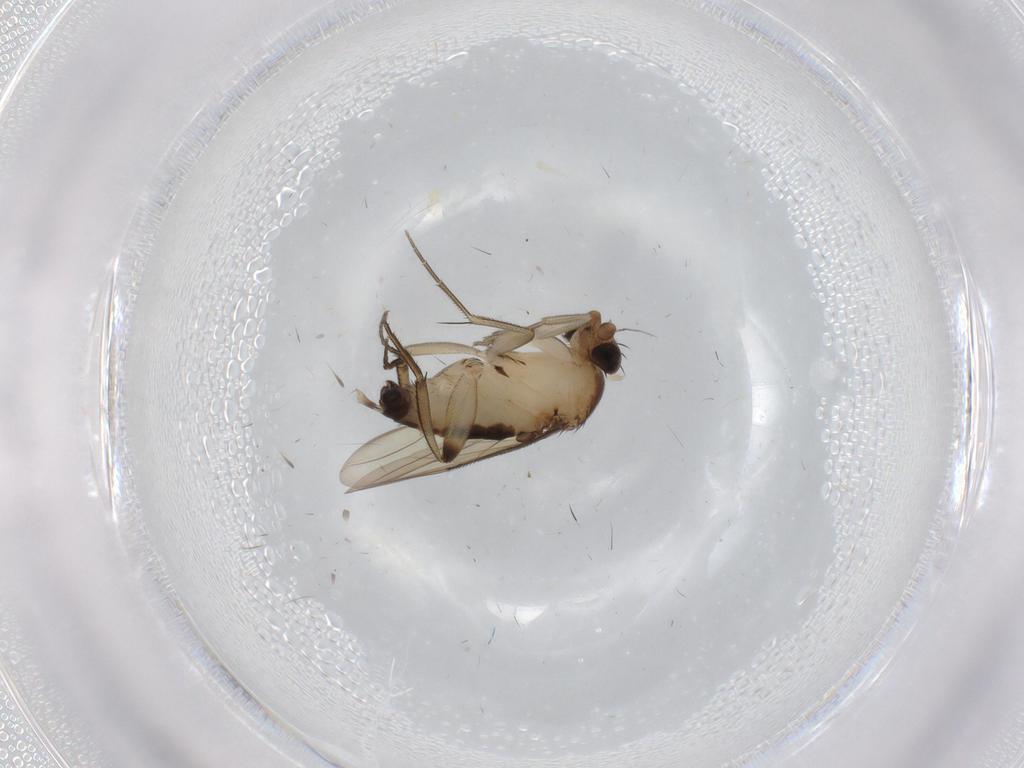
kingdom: Animalia
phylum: Arthropoda
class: Insecta
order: Diptera
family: Phoridae
